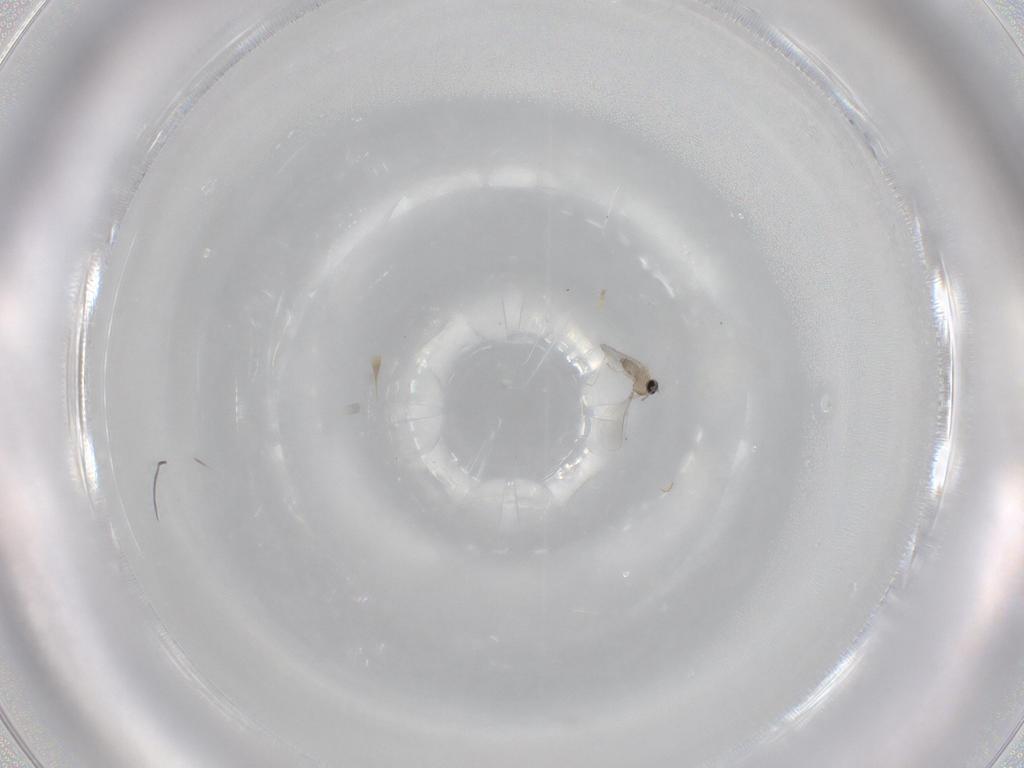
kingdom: Animalia
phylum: Arthropoda
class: Insecta
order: Diptera
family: Cecidomyiidae
